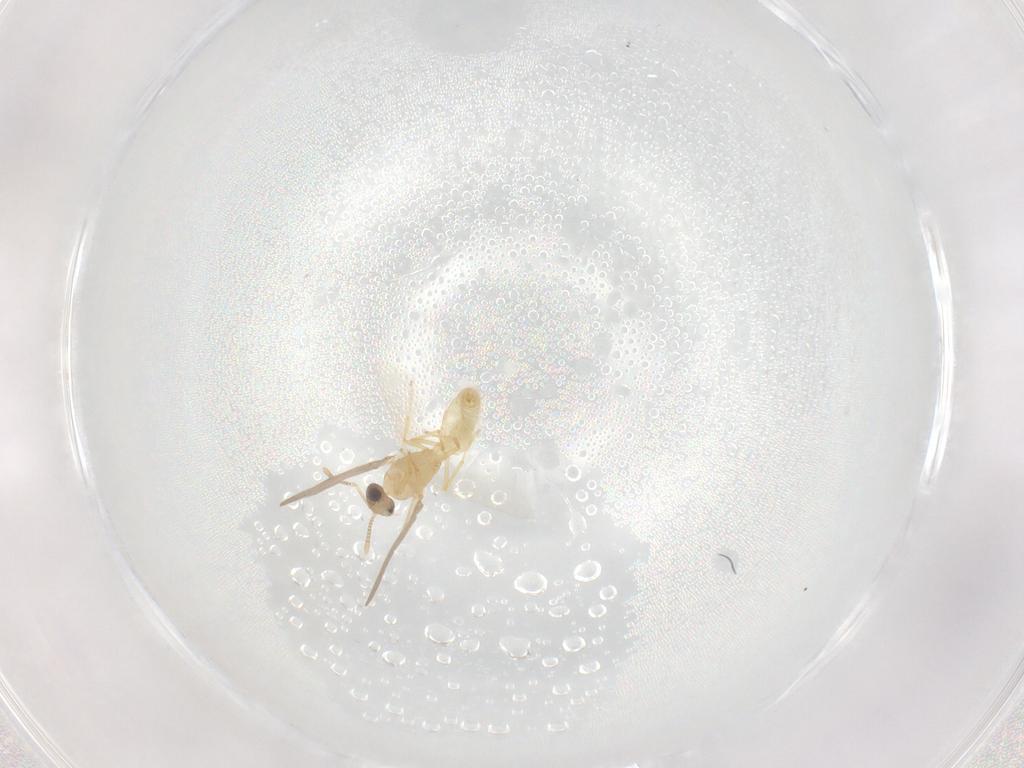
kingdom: Animalia
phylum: Arthropoda
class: Insecta
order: Hymenoptera
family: Formicidae
